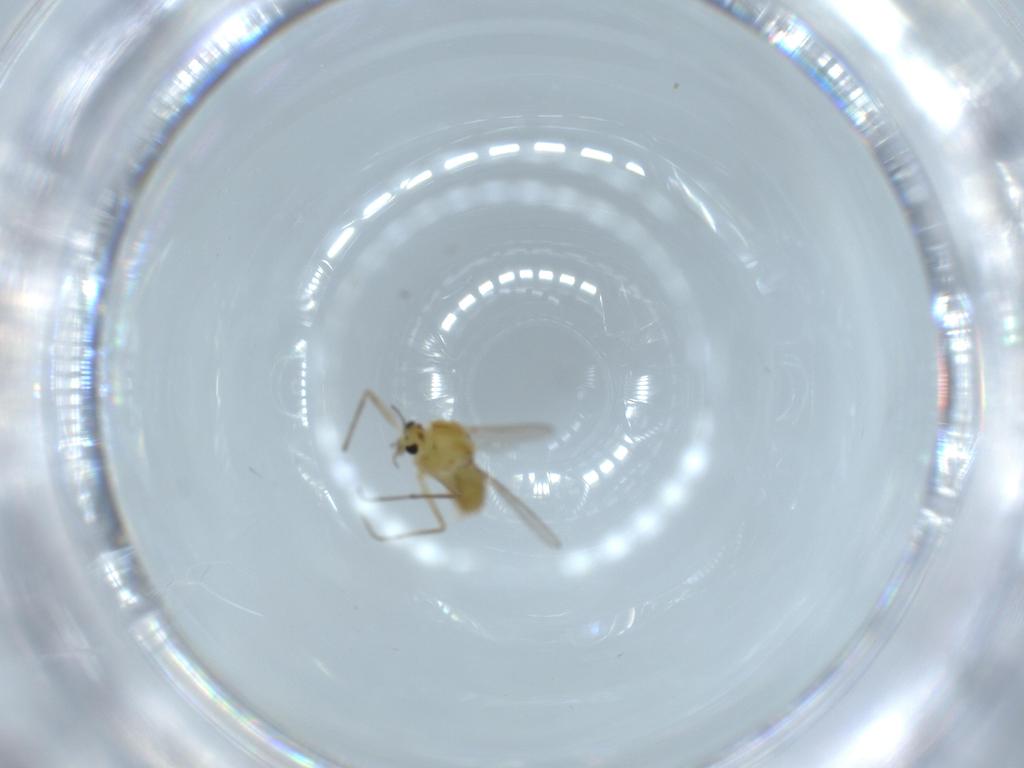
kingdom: Animalia
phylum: Arthropoda
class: Insecta
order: Diptera
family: Chironomidae
